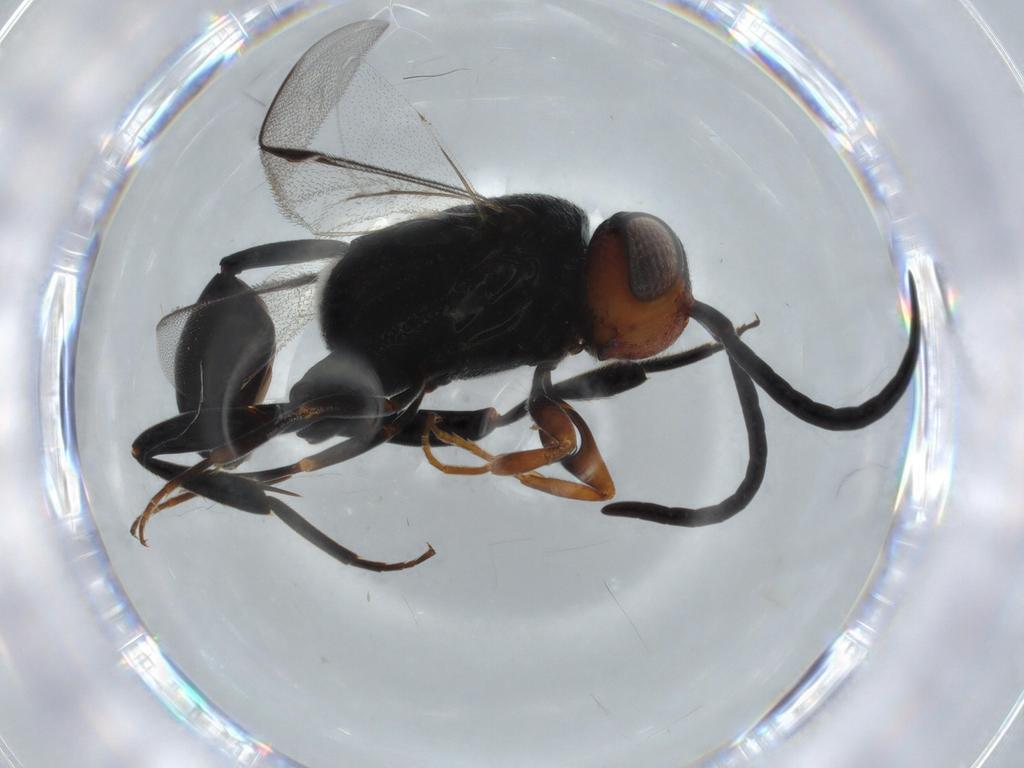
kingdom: Animalia
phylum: Arthropoda
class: Insecta
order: Hymenoptera
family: Evaniidae
